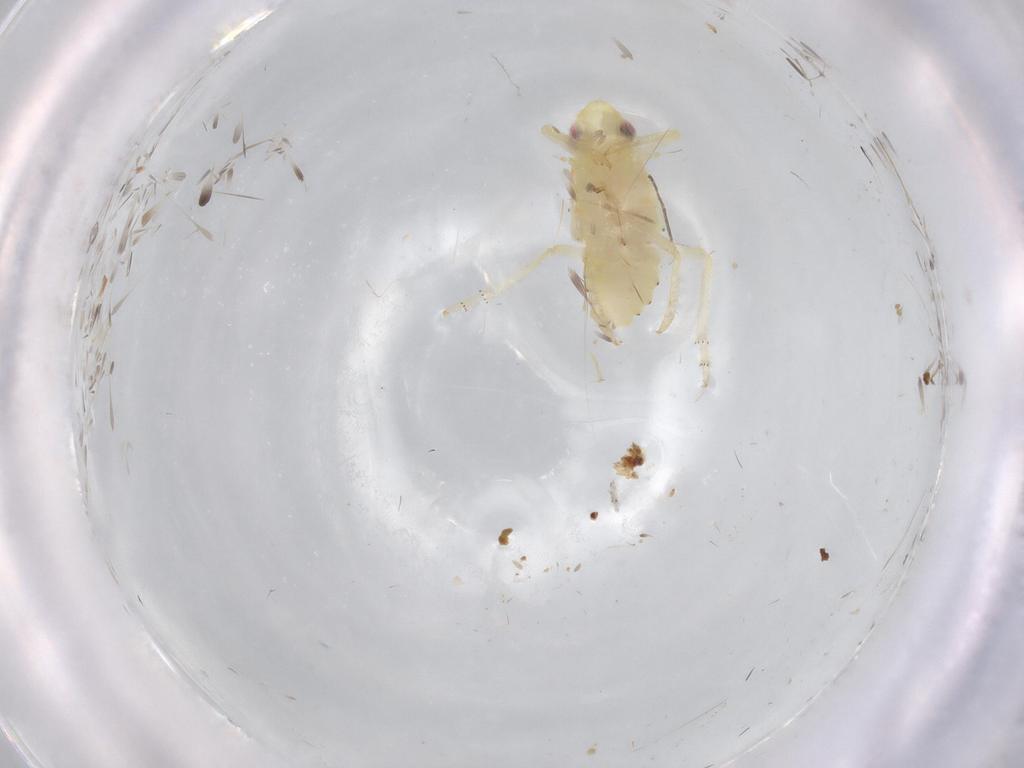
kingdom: Animalia
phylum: Arthropoda
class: Insecta
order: Hemiptera
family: Tropiduchidae
